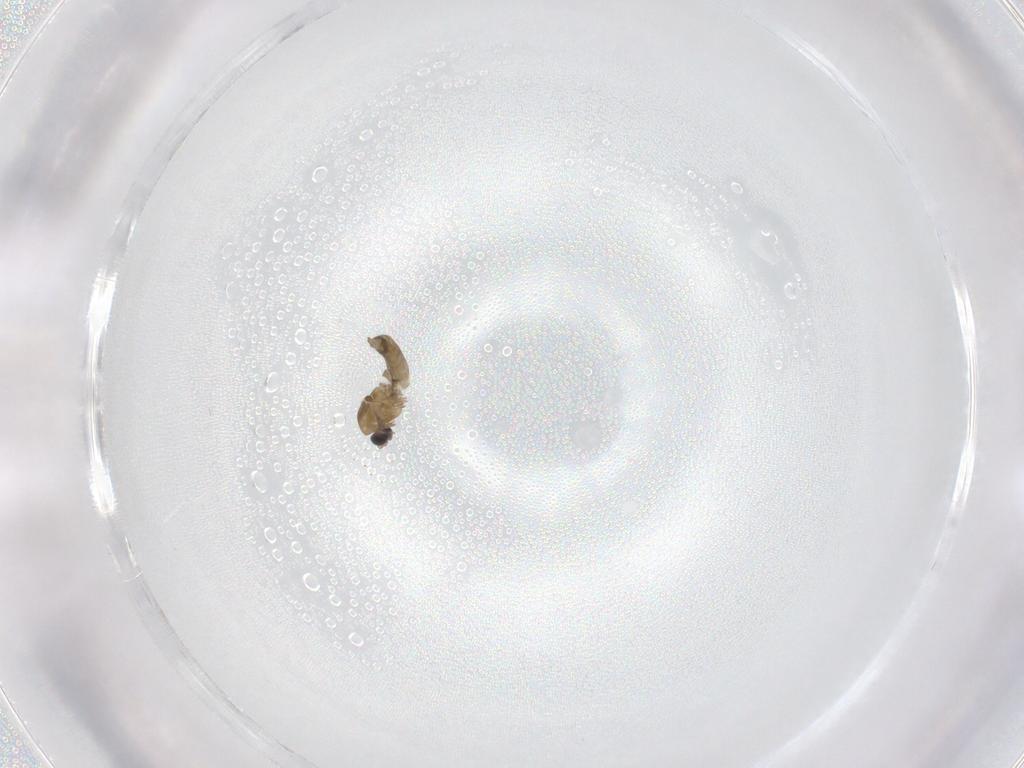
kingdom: Animalia
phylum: Arthropoda
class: Insecta
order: Diptera
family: Chironomidae
